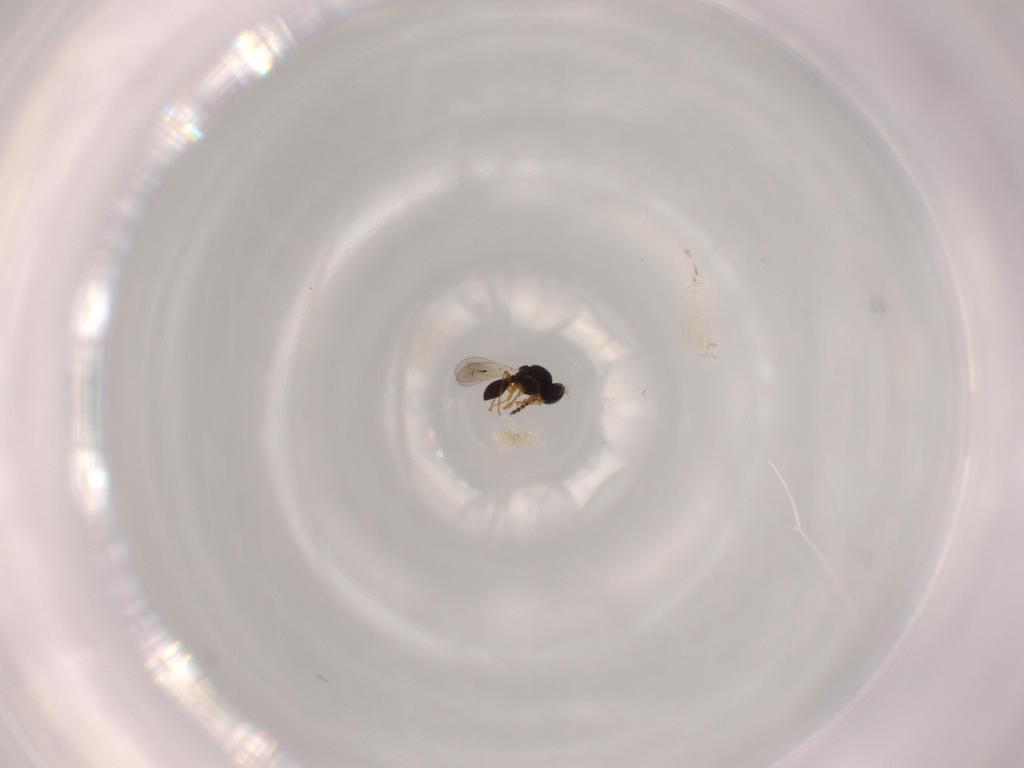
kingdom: Animalia
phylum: Arthropoda
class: Insecta
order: Hymenoptera
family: Platygastridae
